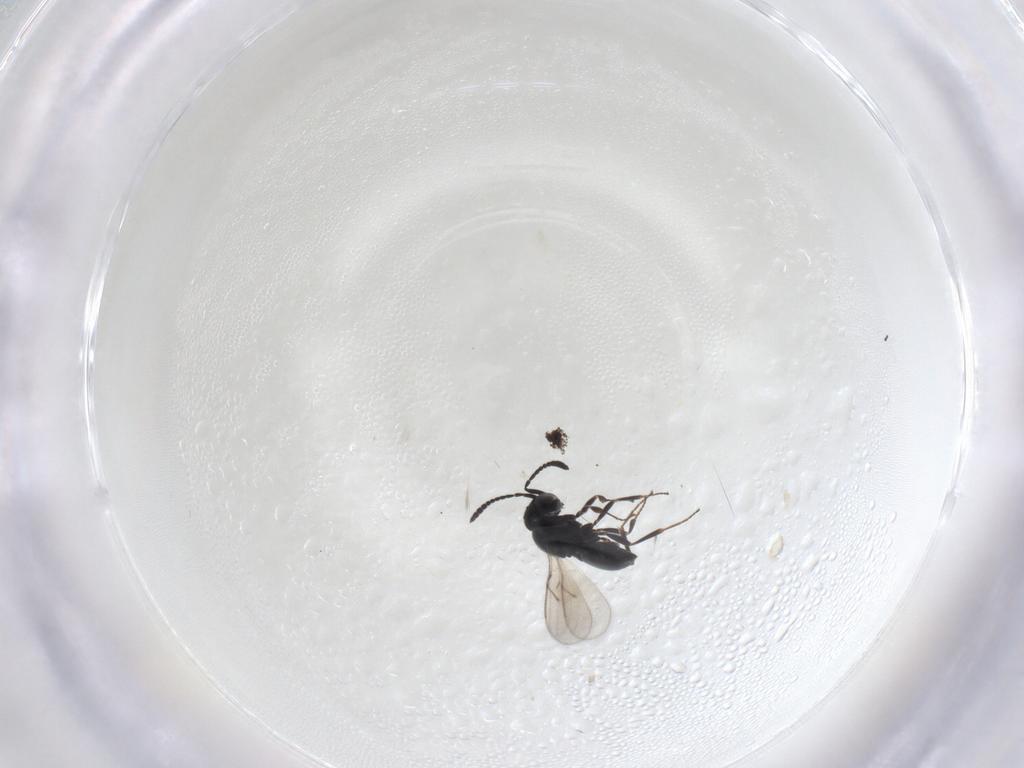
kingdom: Animalia
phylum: Arthropoda
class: Insecta
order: Hymenoptera
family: Scelionidae
